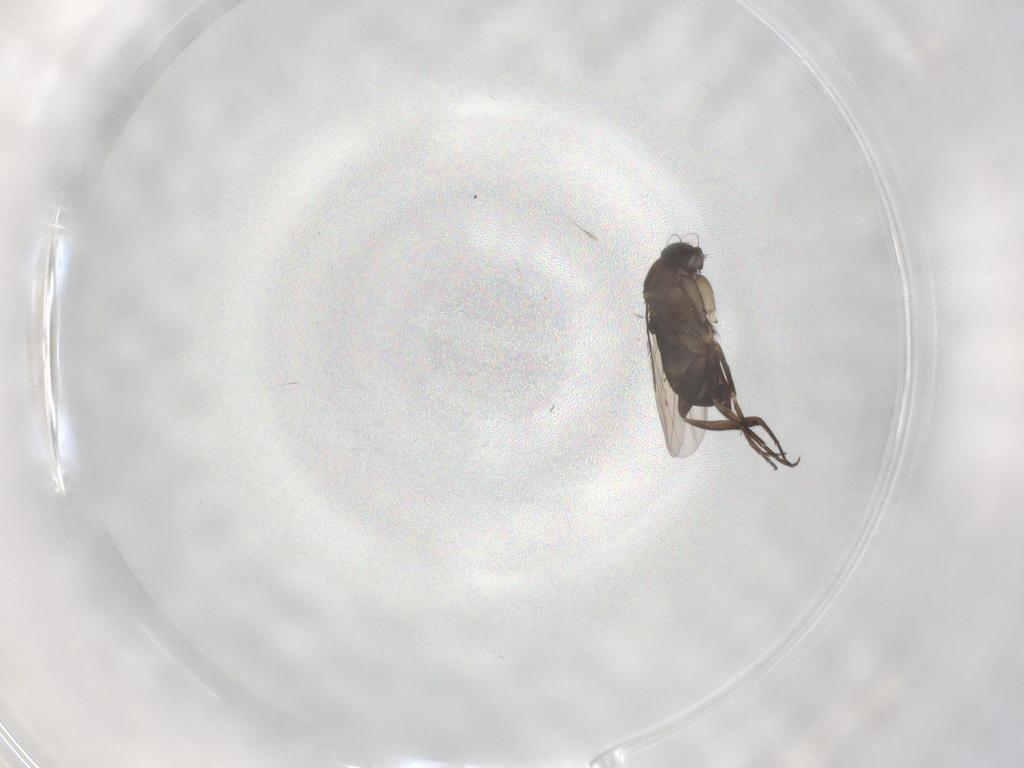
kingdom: Animalia
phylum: Arthropoda
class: Insecta
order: Diptera
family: Phoridae
